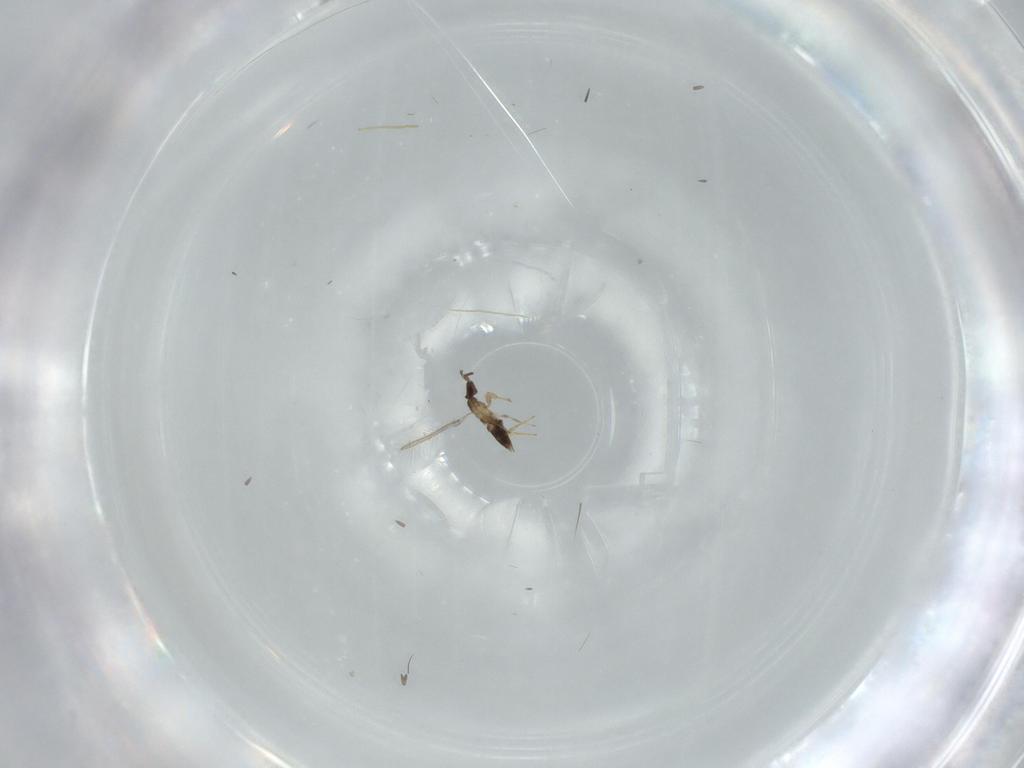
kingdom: Animalia
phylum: Arthropoda
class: Insecta
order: Hymenoptera
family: Mymaridae
